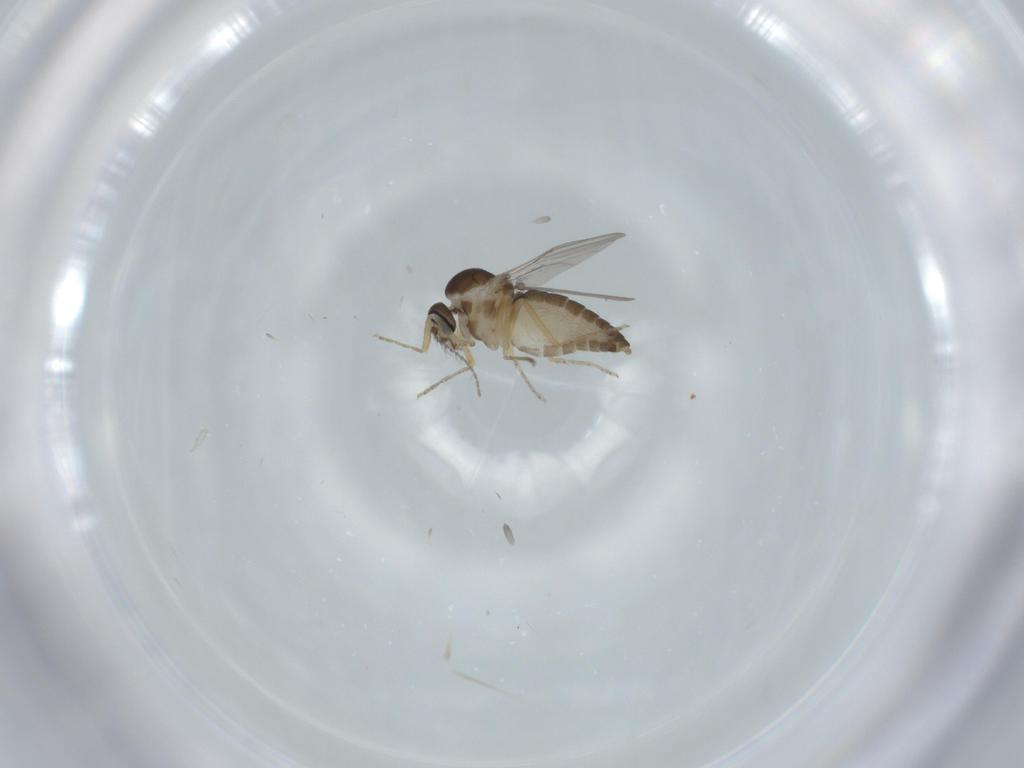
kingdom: Animalia
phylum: Arthropoda
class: Insecta
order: Diptera
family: Ceratopogonidae
